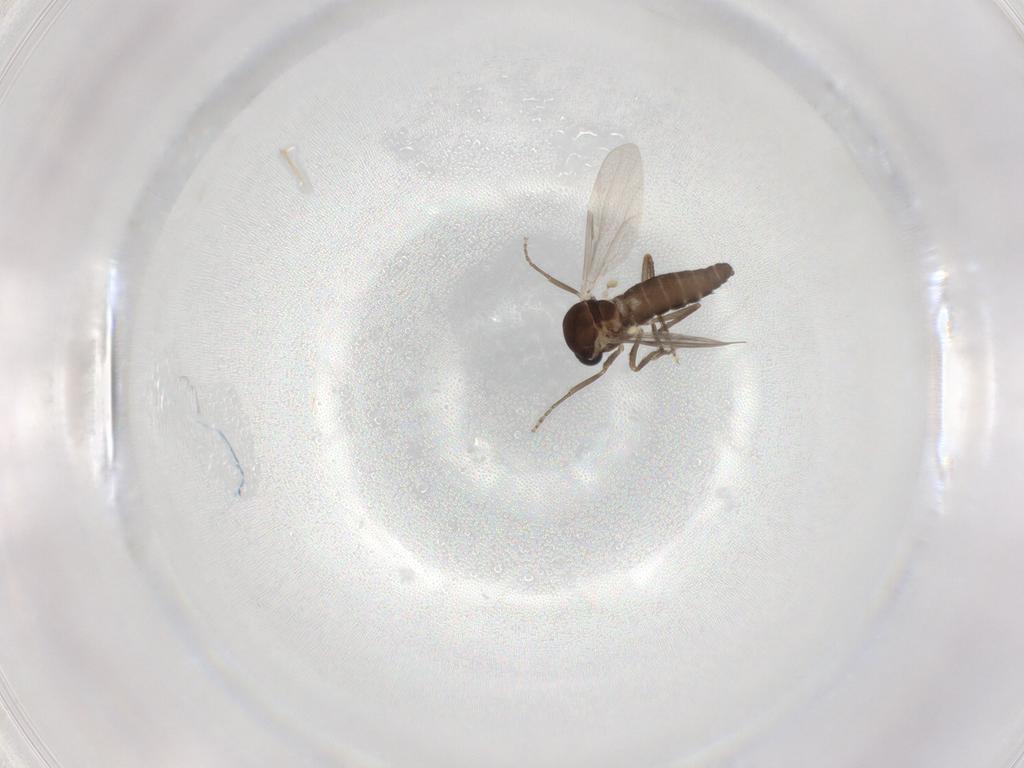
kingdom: Animalia
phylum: Arthropoda
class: Insecta
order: Diptera
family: Ceratopogonidae
